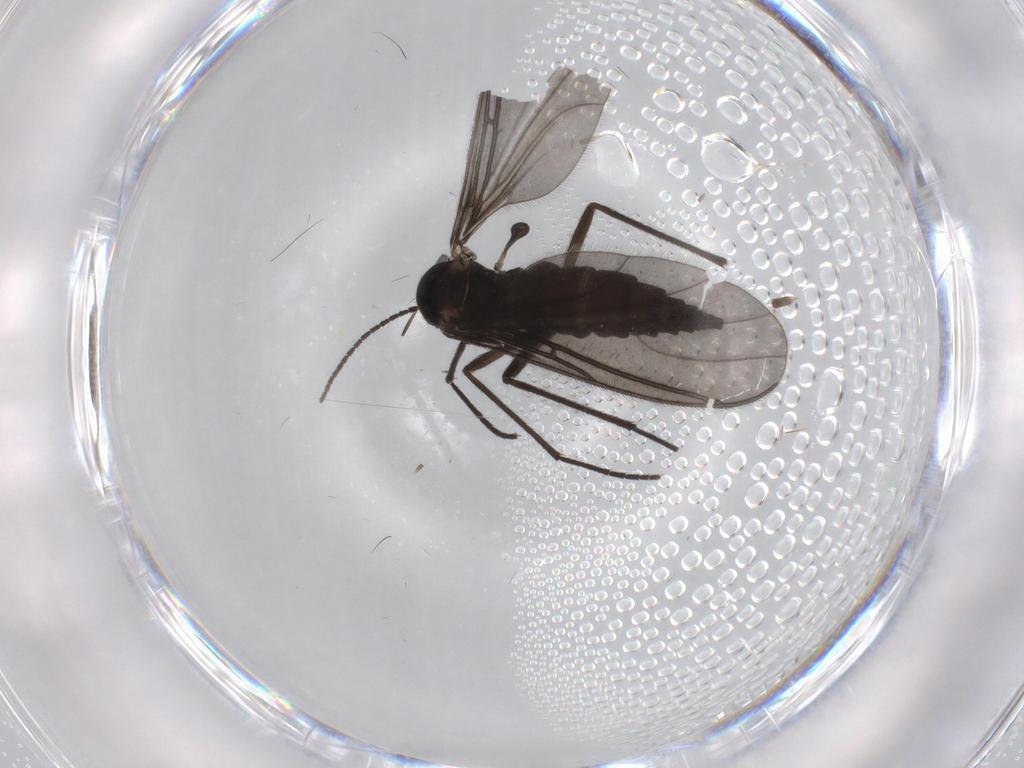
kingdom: Animalia
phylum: Arthropoda
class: Insecta
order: Diptera
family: Sciaridae
